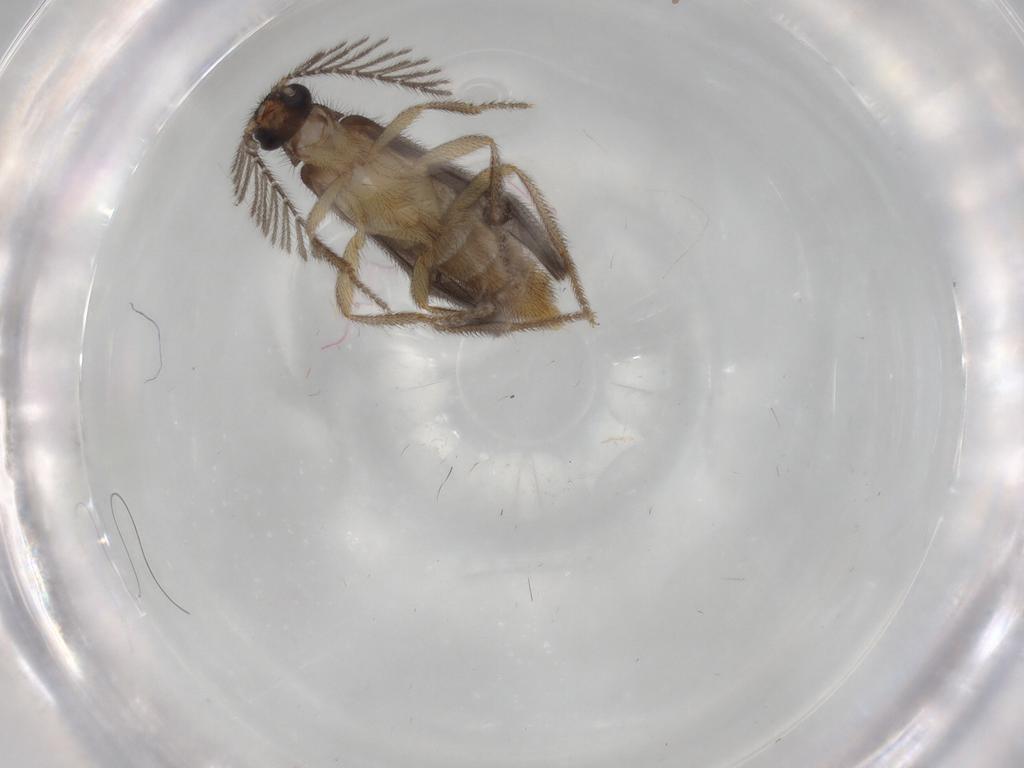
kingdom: Animalia
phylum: Arthropoda
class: Insecta
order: Coleoptera
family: Phengodidae
